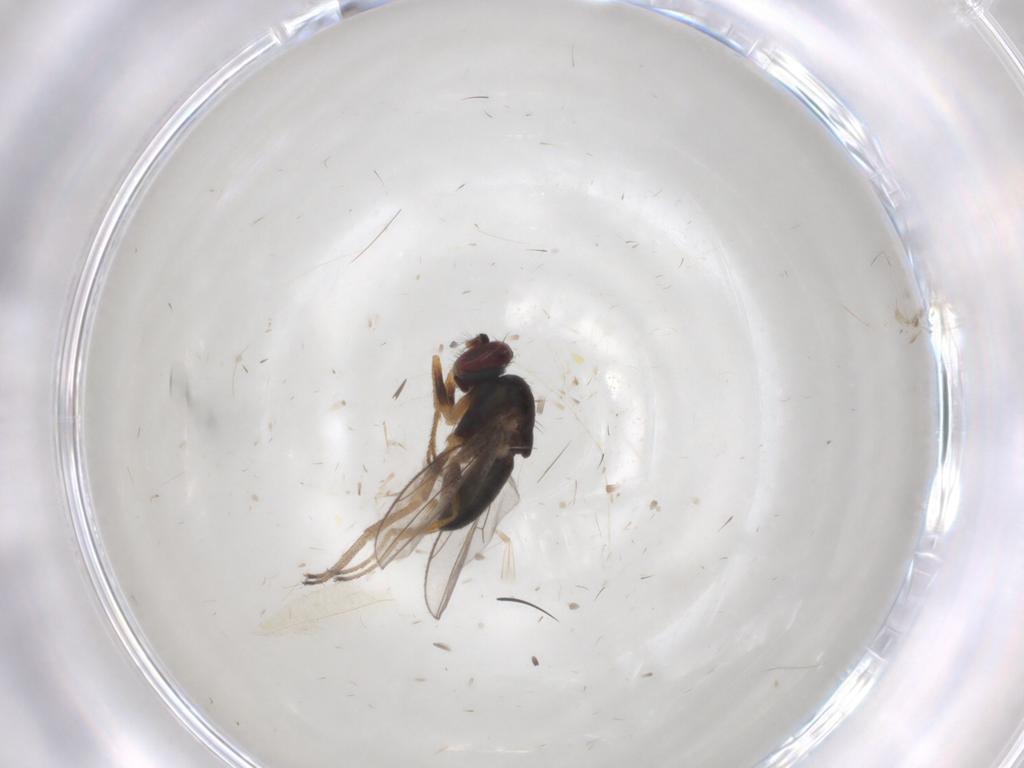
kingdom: Animalia
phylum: Arthropoda
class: Insecta
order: Diptera
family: Ephydridae
